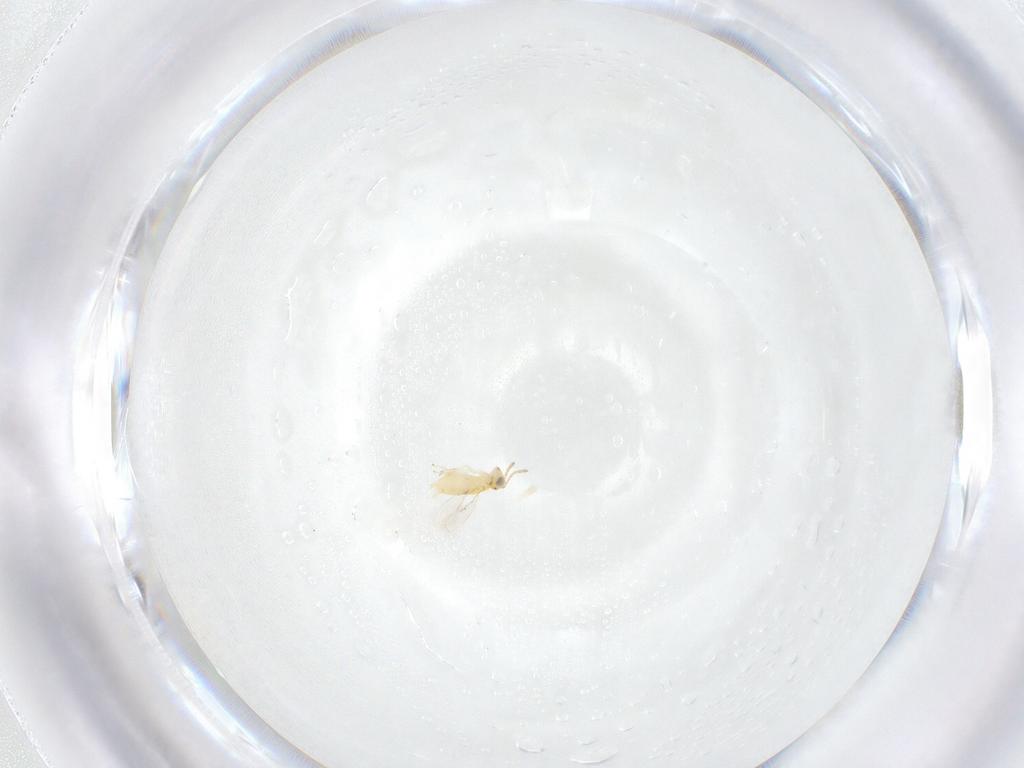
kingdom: Animalia
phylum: Arthropoda
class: Insecta
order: Hymenoptera
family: Aphelinidae
